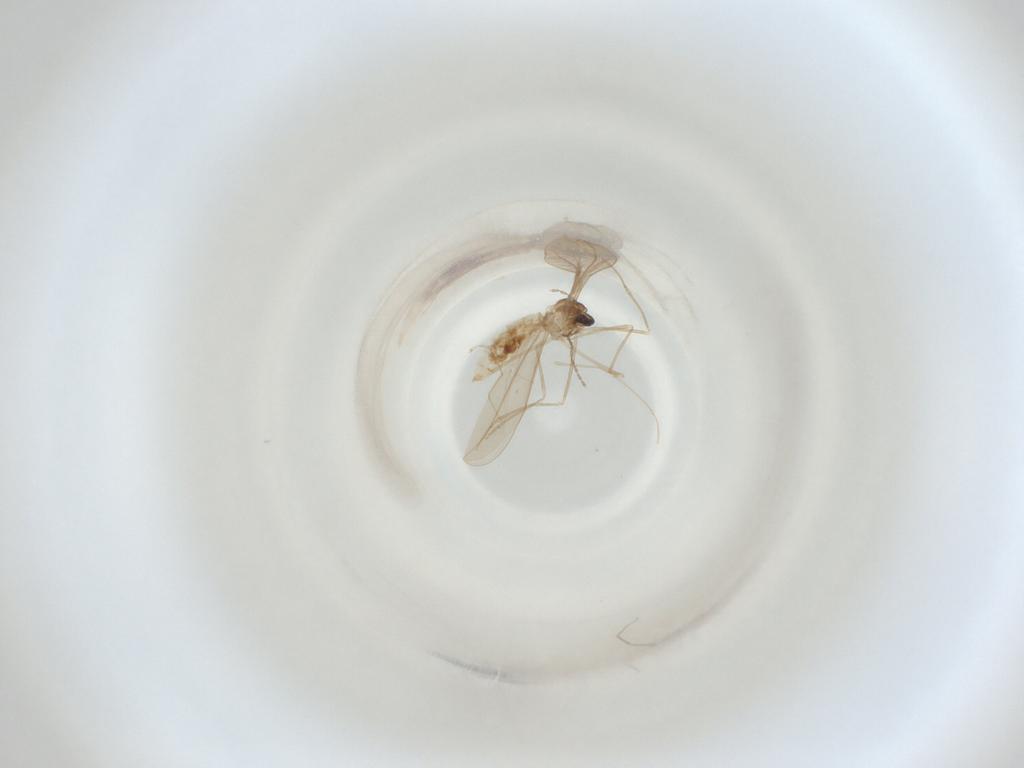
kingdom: Animalia
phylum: Arthropoda
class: Insecta
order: Diptera
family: Cecidomyiidae
